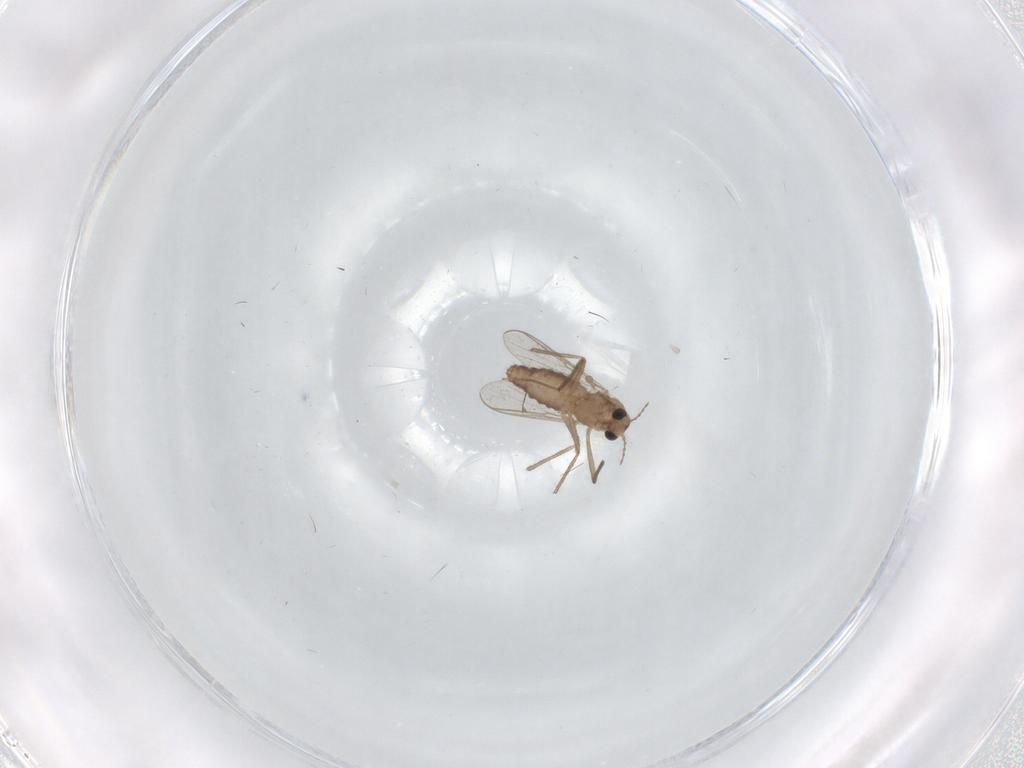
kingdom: Animalia
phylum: Arthropoda
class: Insecta
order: Diptera
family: Chironomidae
